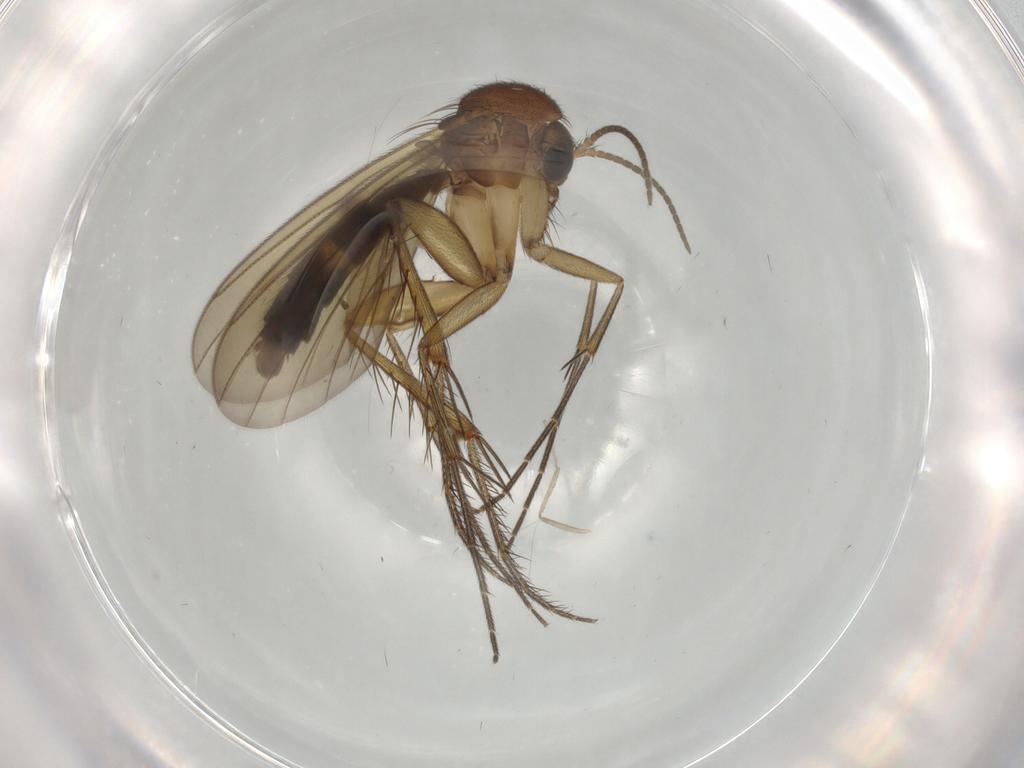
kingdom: Animalia
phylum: Arthropoda
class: Insecta
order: Diptera
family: Mycetophilidae
